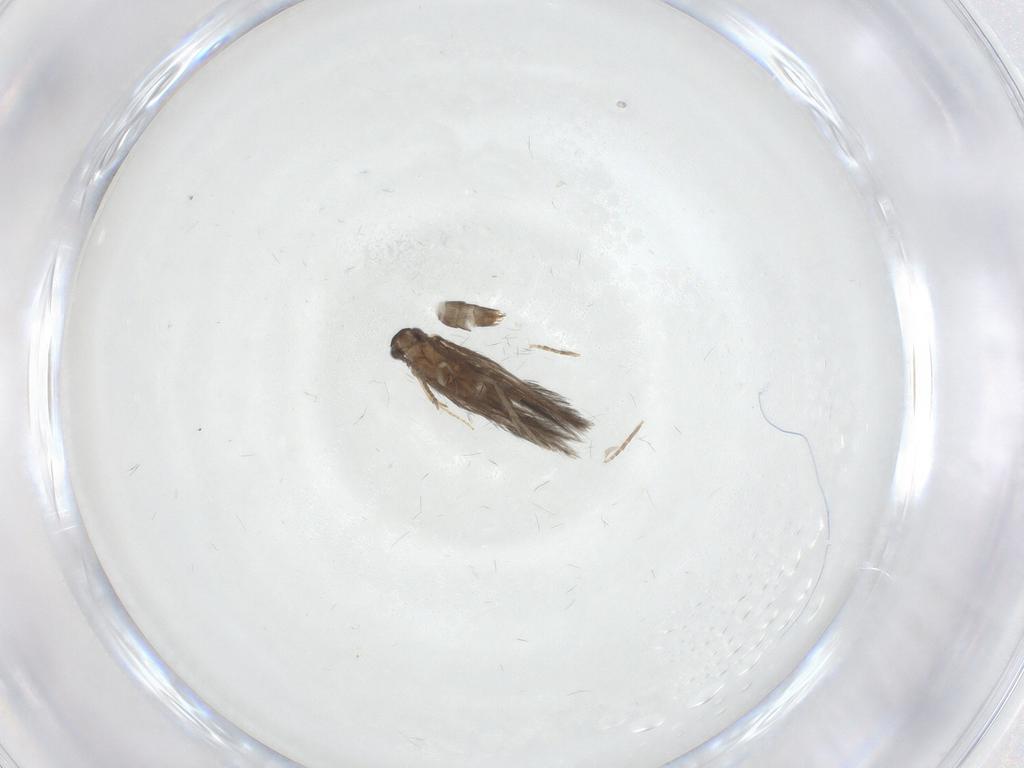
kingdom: Animalia
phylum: Arthropoda
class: Insecta
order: Trichoptera
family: Hydroptilidae
